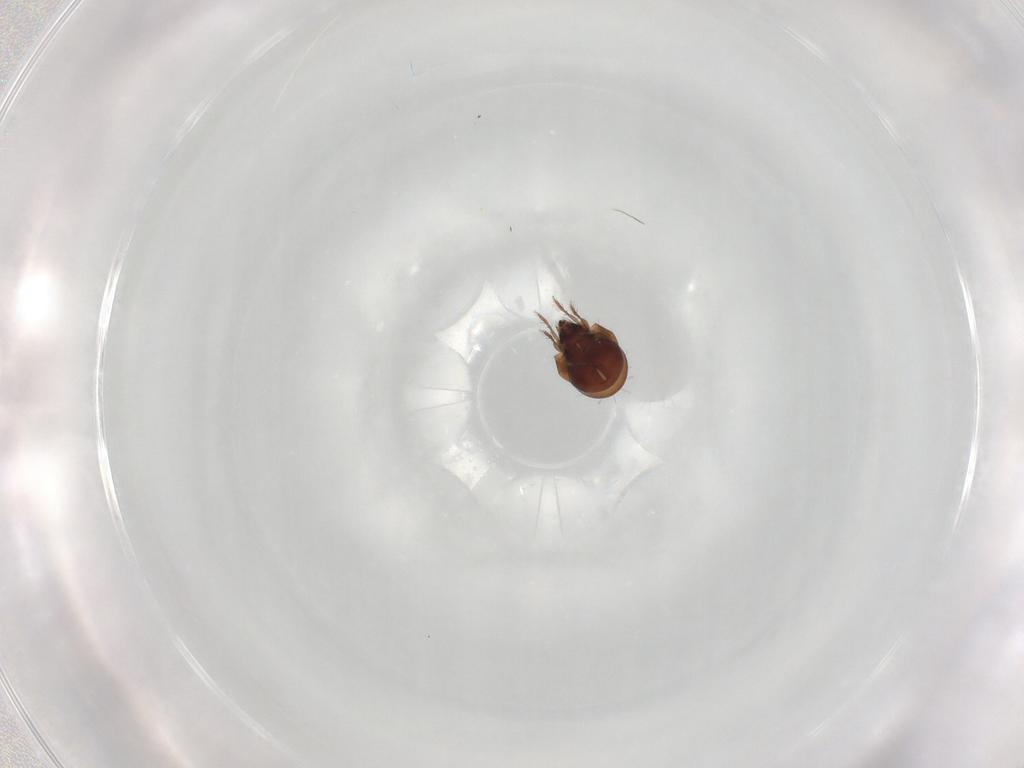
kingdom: Animalia
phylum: Arthropoda
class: Arachnida
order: Sarcoptiformes
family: Humerobatidae
